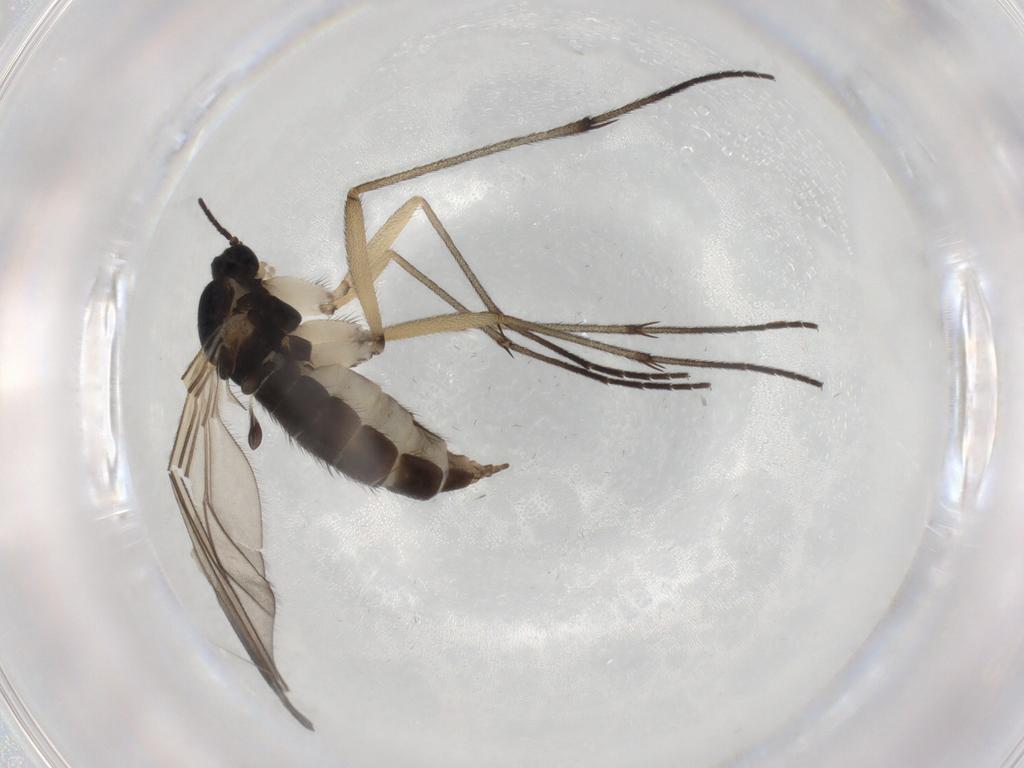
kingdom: Animalia
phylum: Arthropoda
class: Insecta
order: Diptera
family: Sciaridae
